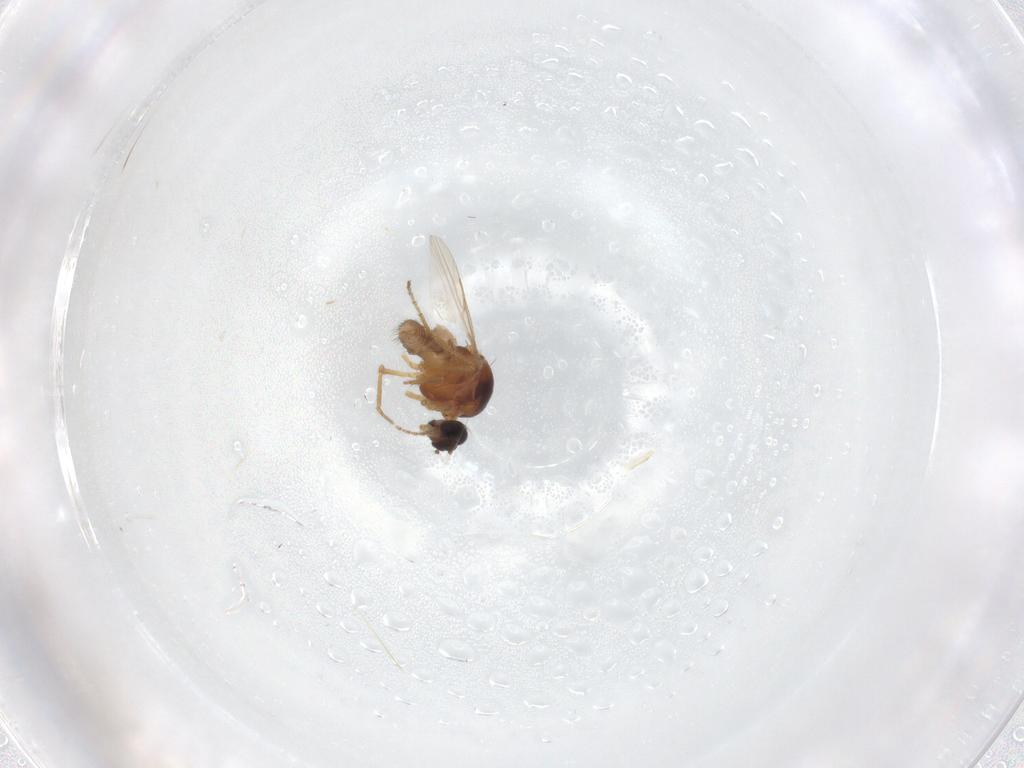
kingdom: Animalia
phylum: Arthropoda
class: Insecta
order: Diptera
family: Ceratopogonidae
